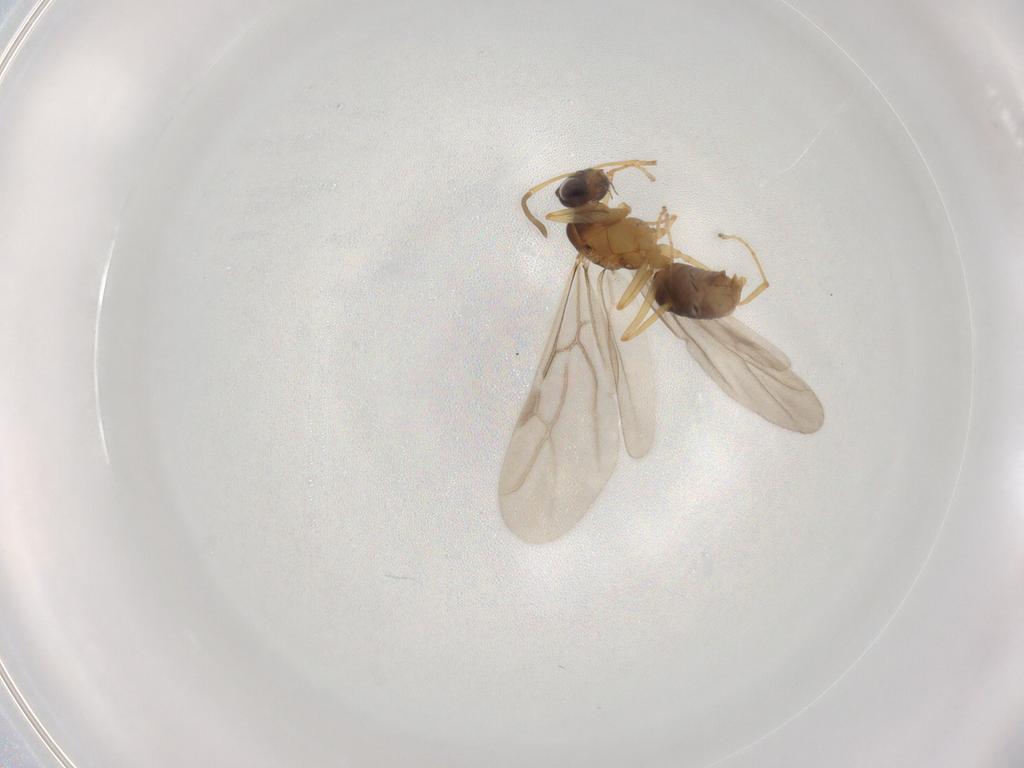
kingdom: Animalia
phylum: Arthropoda
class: Insecta
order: Hymenoptera
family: Formicidae
